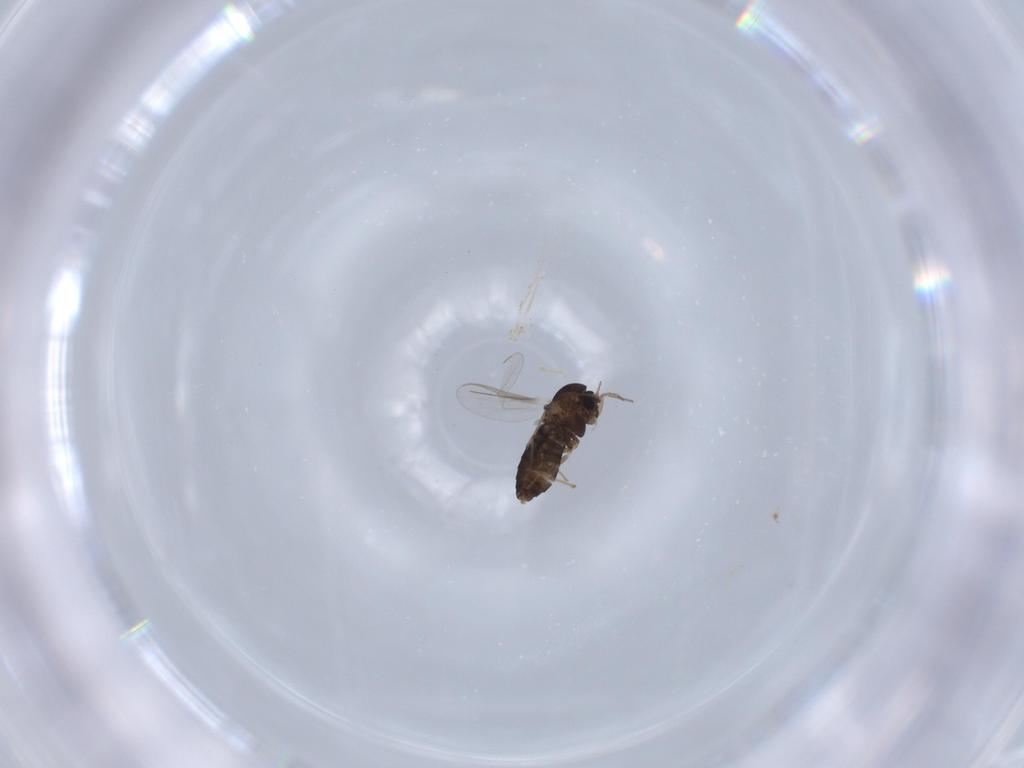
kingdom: Animalia
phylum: Arthropoda
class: Insecta
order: Diptera
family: Chironomidae
